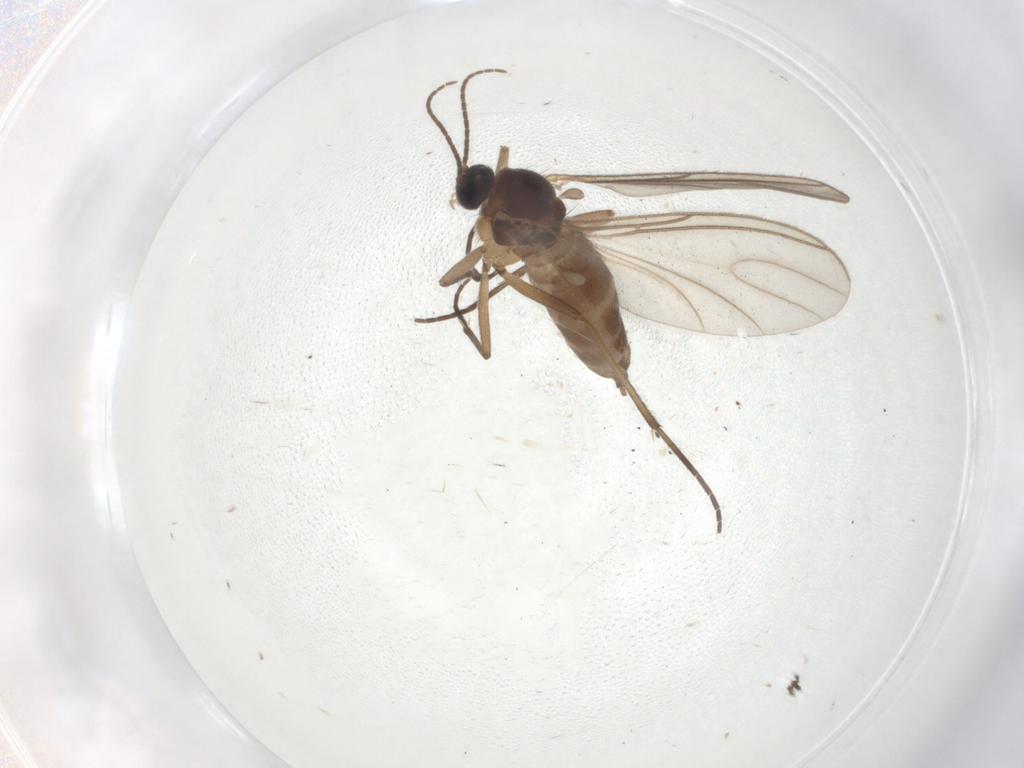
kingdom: Animalia
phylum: Arthropoda
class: Insecta
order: Diptera
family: Sciaridae
